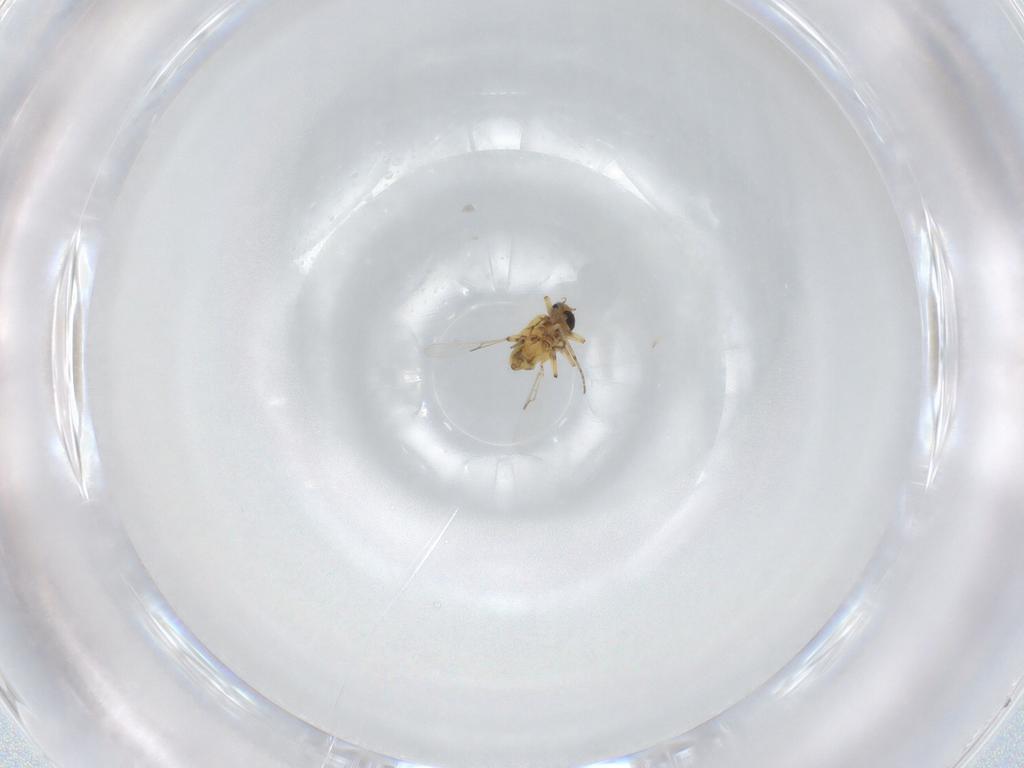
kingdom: Animalia
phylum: Arthropoda
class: Insecta
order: Diptera
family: Ceratopogonidae
